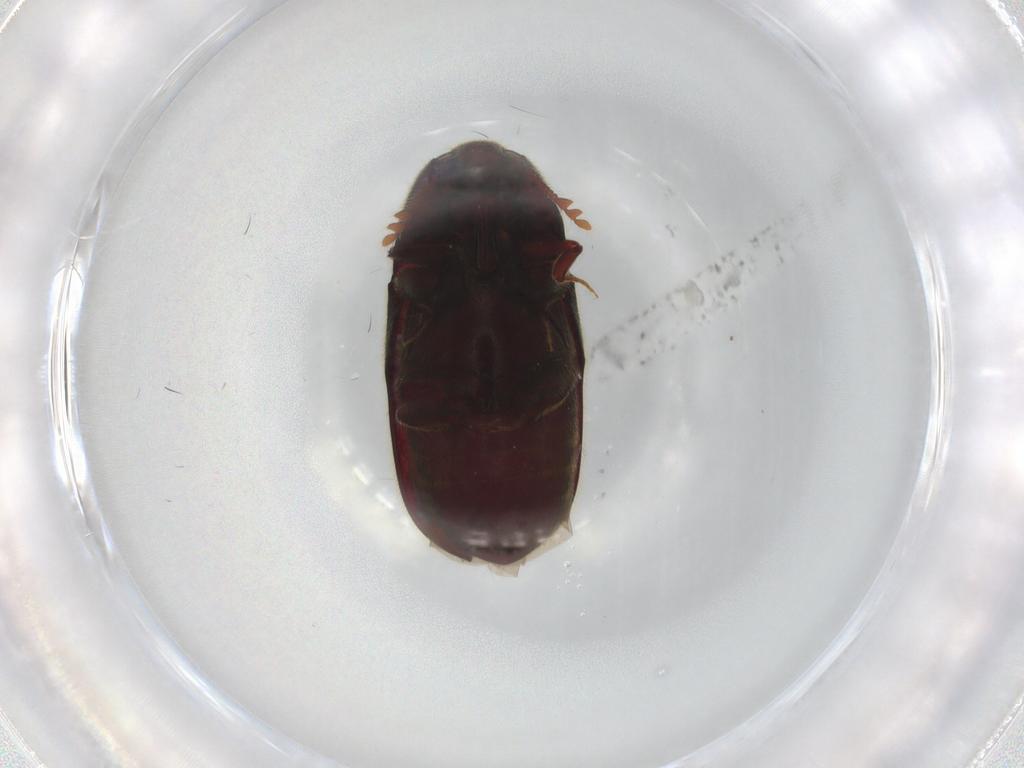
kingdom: Animalia
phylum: Arthropoda
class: Insecta
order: Coleoptera
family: Throscidae
